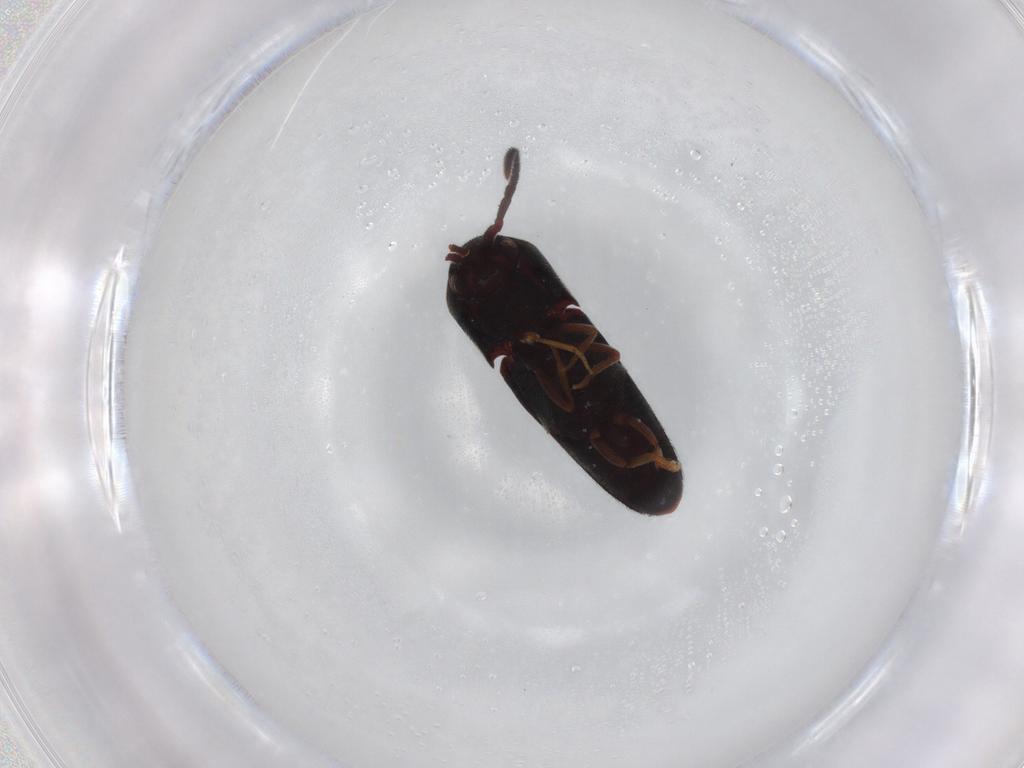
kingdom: Animalia
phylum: Arthropoda
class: Insecta
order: Coleoptera
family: Eucnemidae
